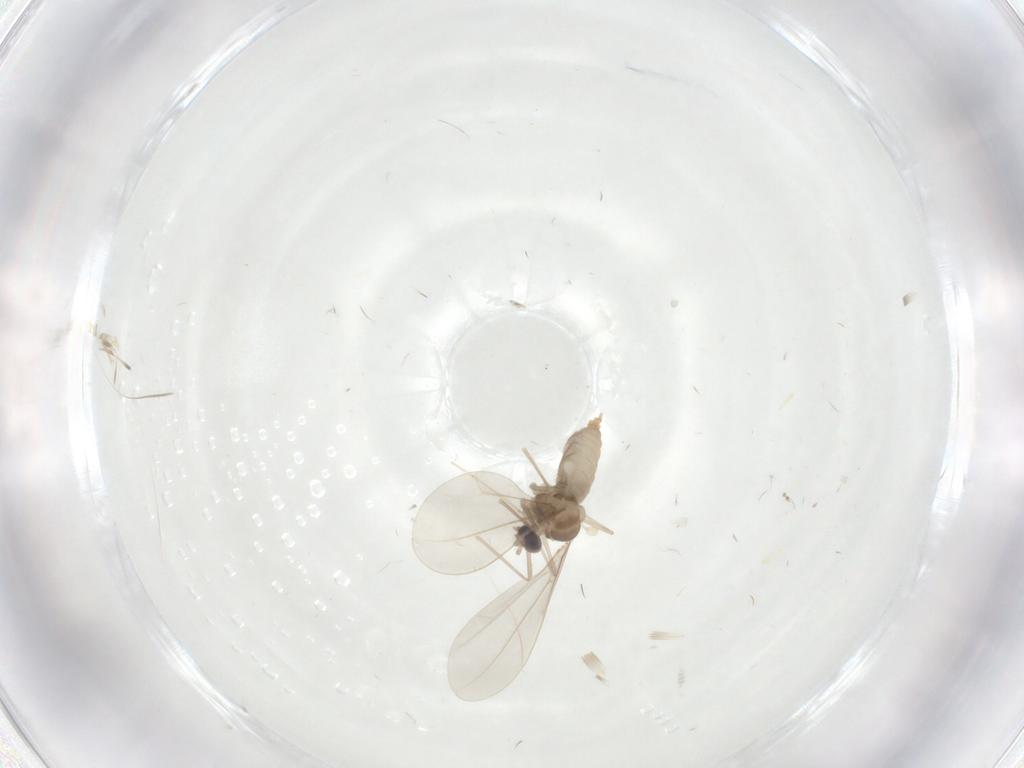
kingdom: Animalia
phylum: Arthropoda
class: Insecta
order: Diptera
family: Cecidomyiidae
